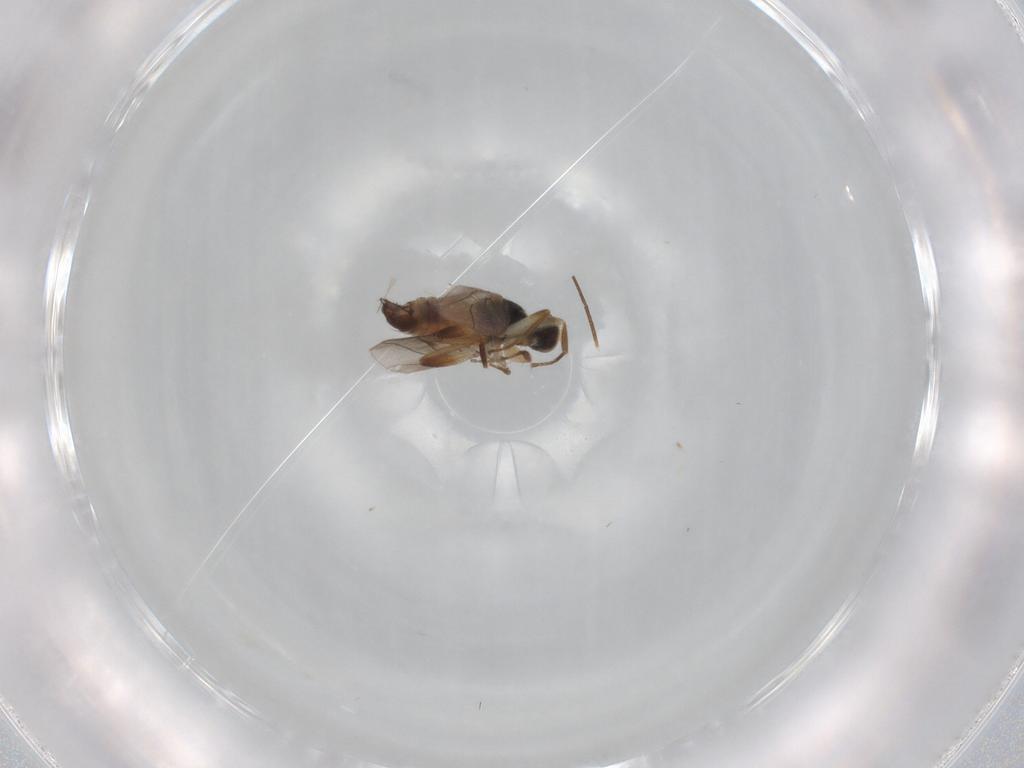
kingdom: Animalia
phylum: Arthropoda
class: Insecta
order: Diptera
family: Hybotidae
